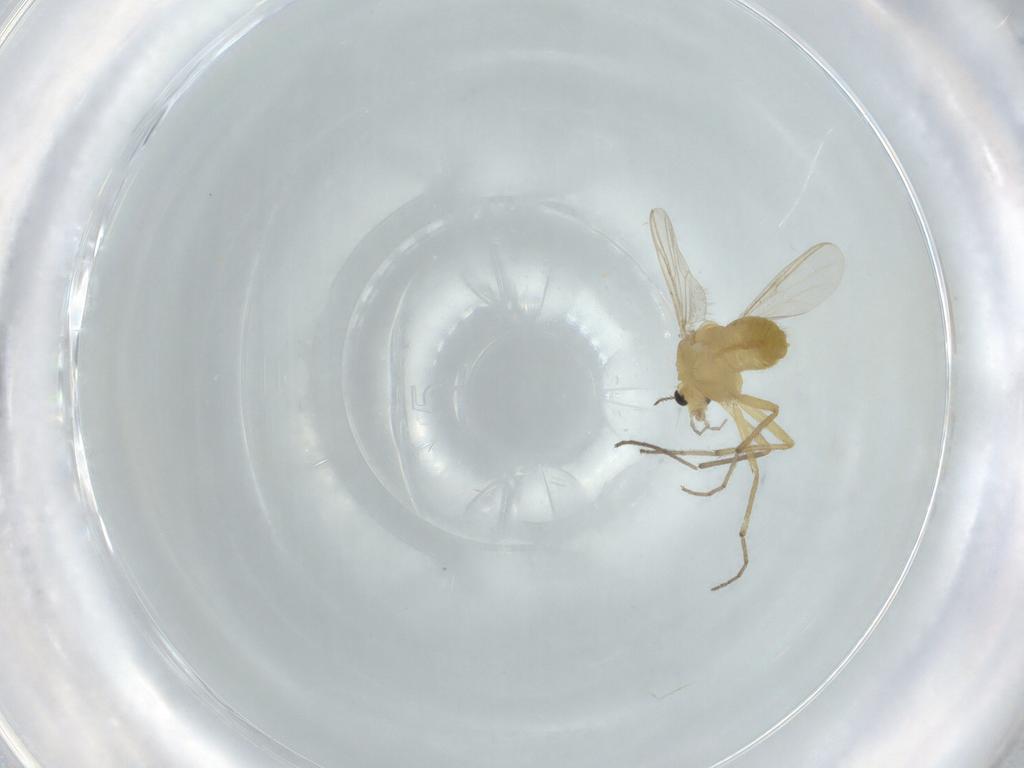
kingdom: Animalia
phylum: Arthropoda
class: Insecta
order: Diptera
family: Chironomidae
